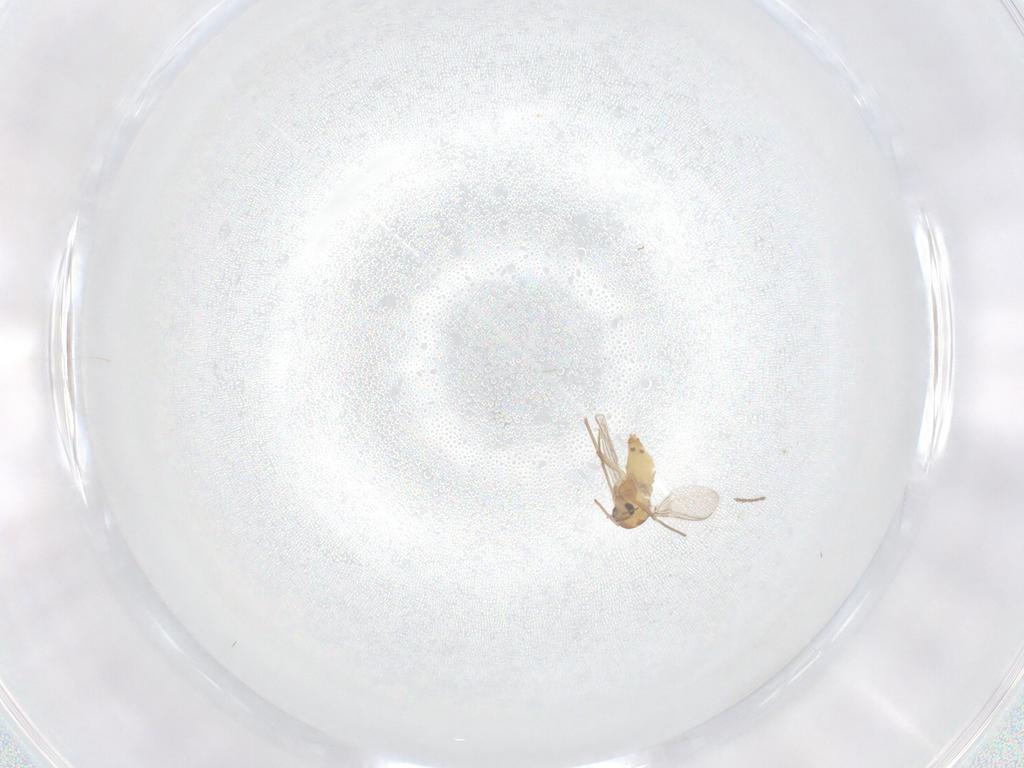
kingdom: Animalia
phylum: Arthropoda
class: Insecta
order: Diptera
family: Chironomidae
